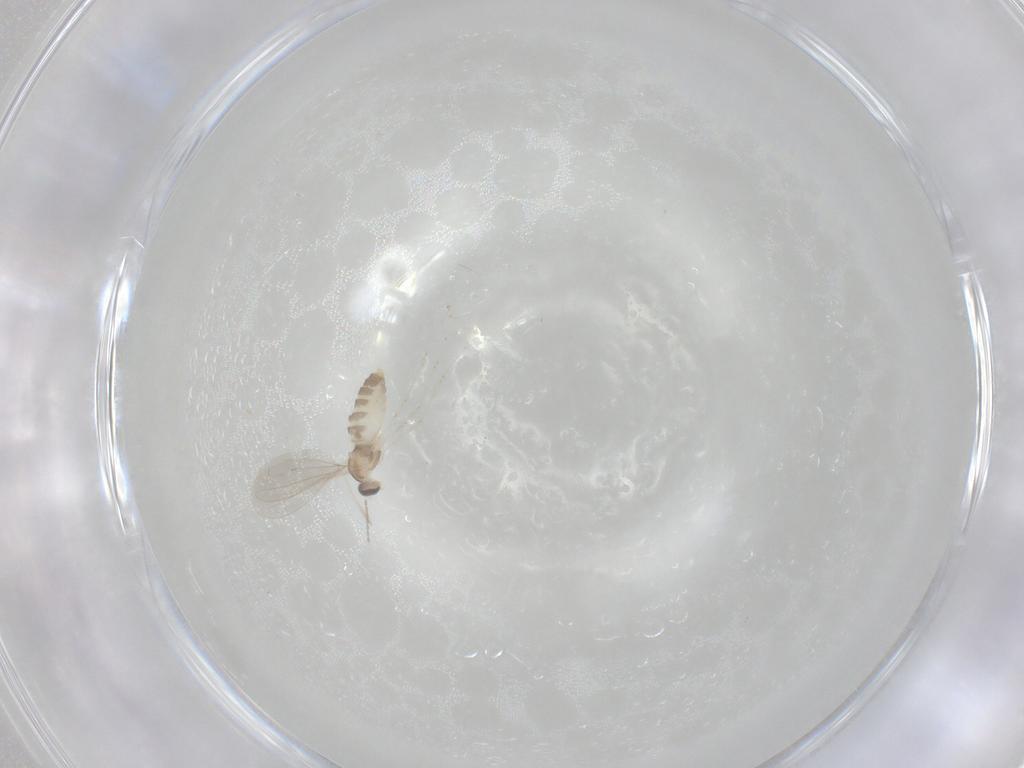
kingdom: Animalia
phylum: Arthropoda
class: Insecta
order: Diptera
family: Cecidomyiidae
